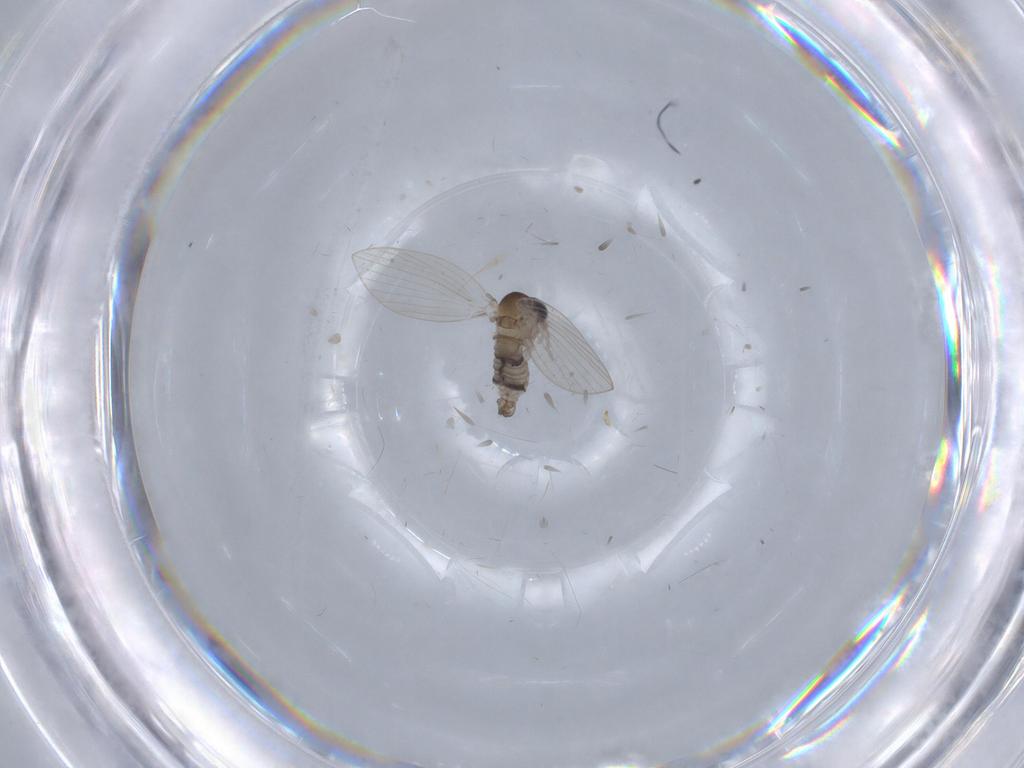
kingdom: Animalia
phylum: Arthropoda
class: Insecta
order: Diptera
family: Psychodidae
